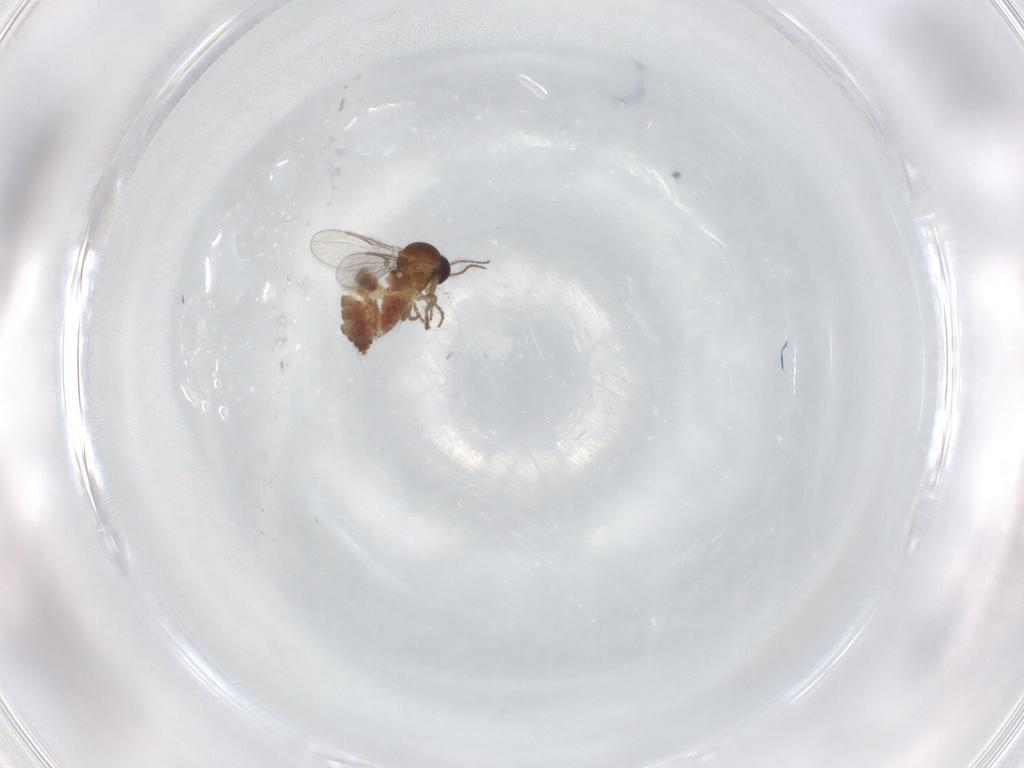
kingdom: Animalia
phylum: Arthropoda
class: Insecta
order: Diptera
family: Chironomidae
